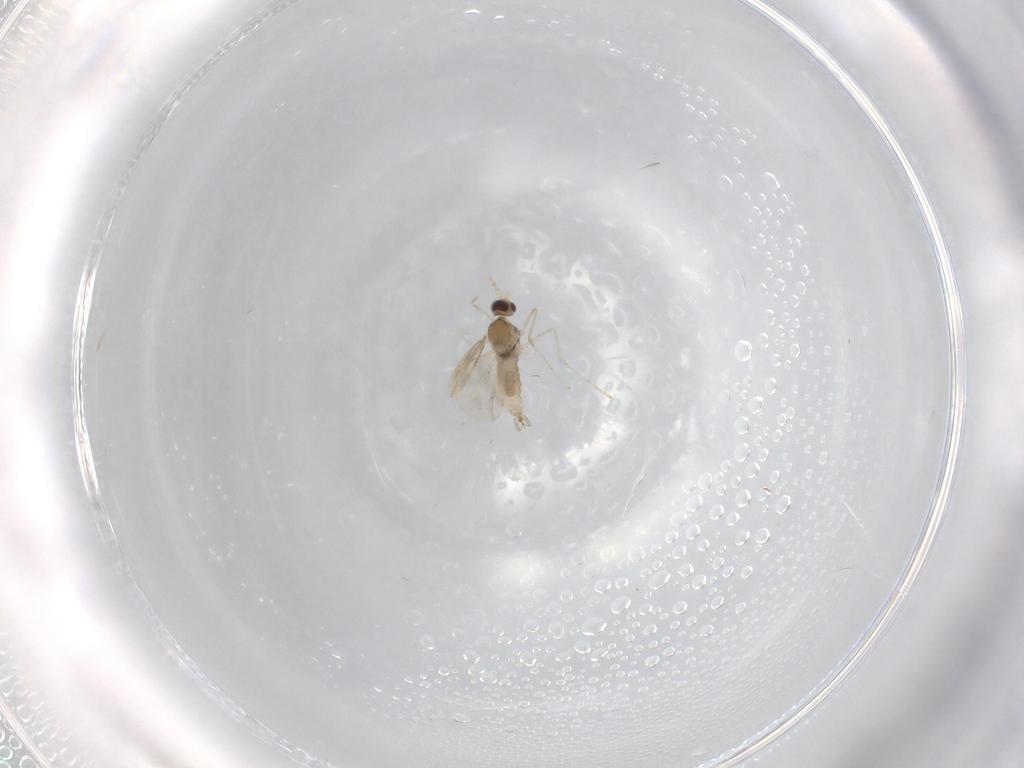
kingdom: Animalia
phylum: Arthropoda
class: Insecta
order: Diptera
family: Cecidomyiidae
